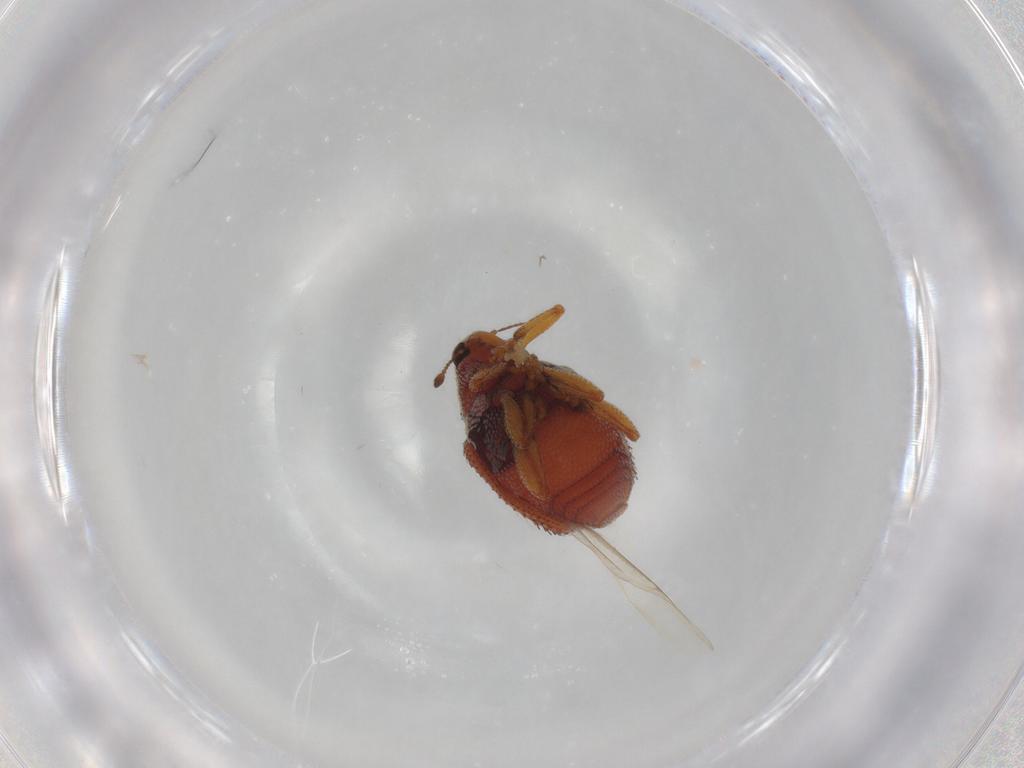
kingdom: Animalia
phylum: Arthropoda
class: Insecta
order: Coleoptera
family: Curculionidae
